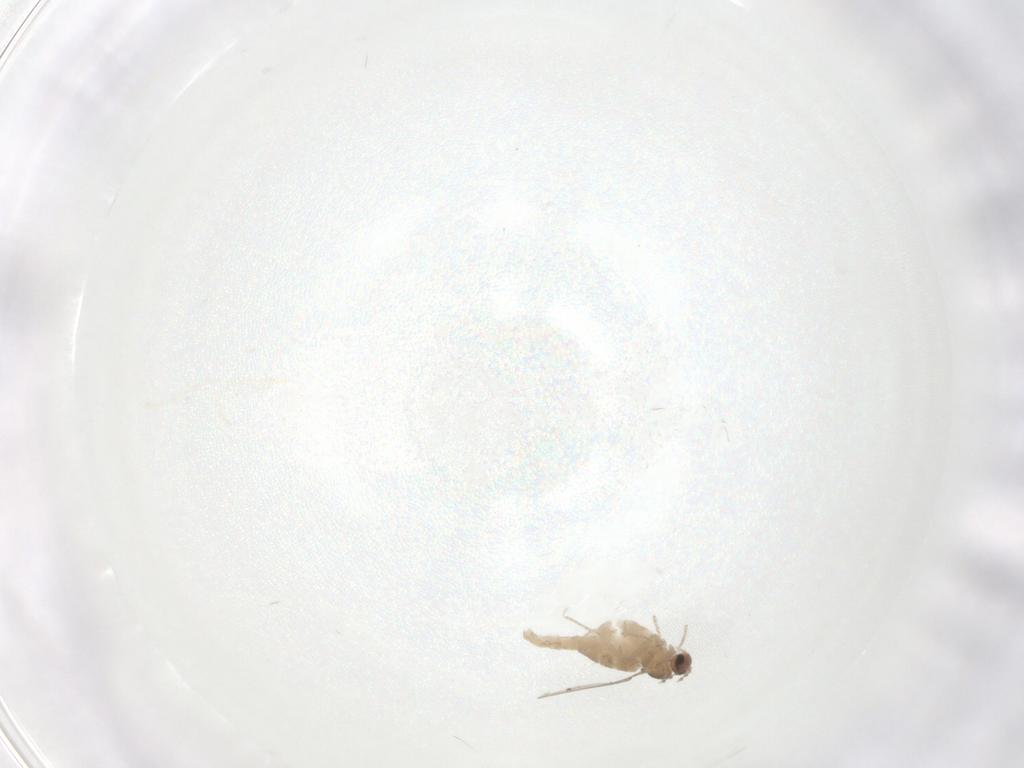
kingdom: Animalia
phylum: Arthropoda
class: Insecta
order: Diptera
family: Cecidomyiidae
